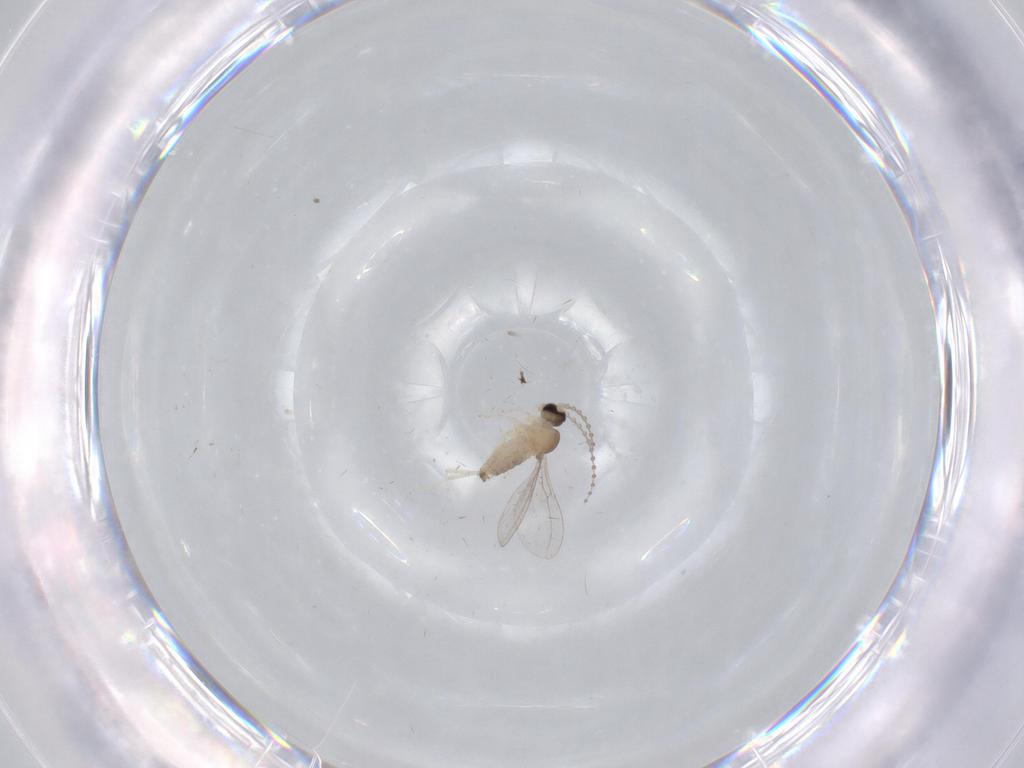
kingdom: Animalia
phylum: Arthropoda
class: Insecta
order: Diptera
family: Cecidomyiidae
